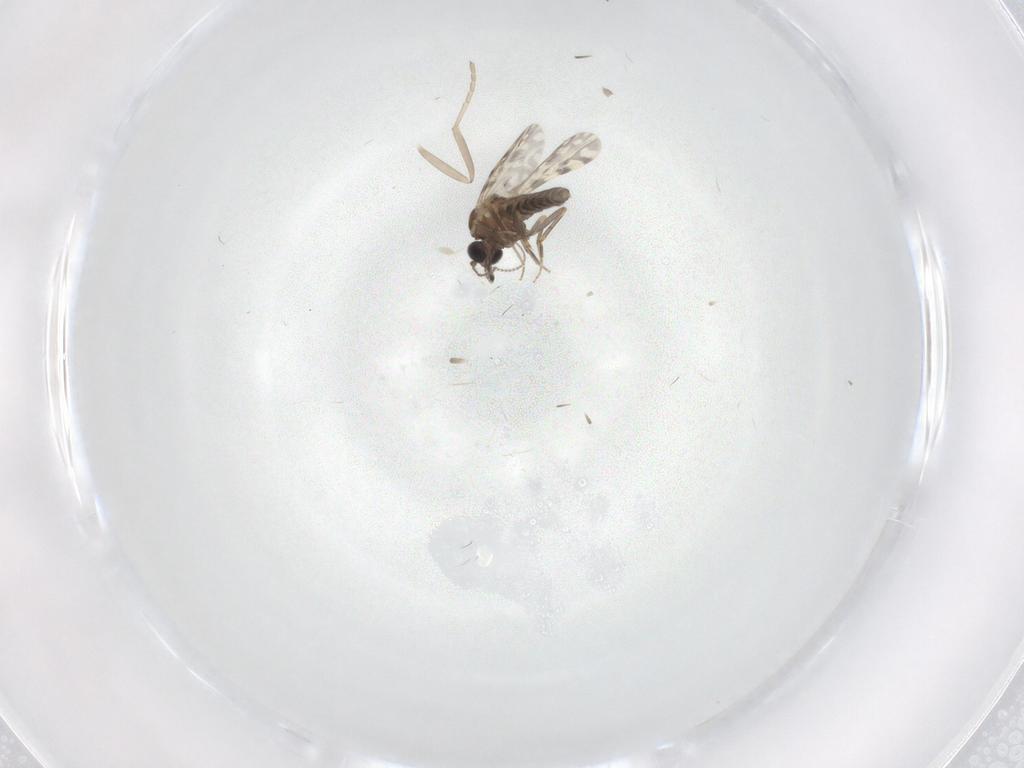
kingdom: Animalia
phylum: Arthropoda
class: Insecta
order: Diptera
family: Ceratopogonidae
